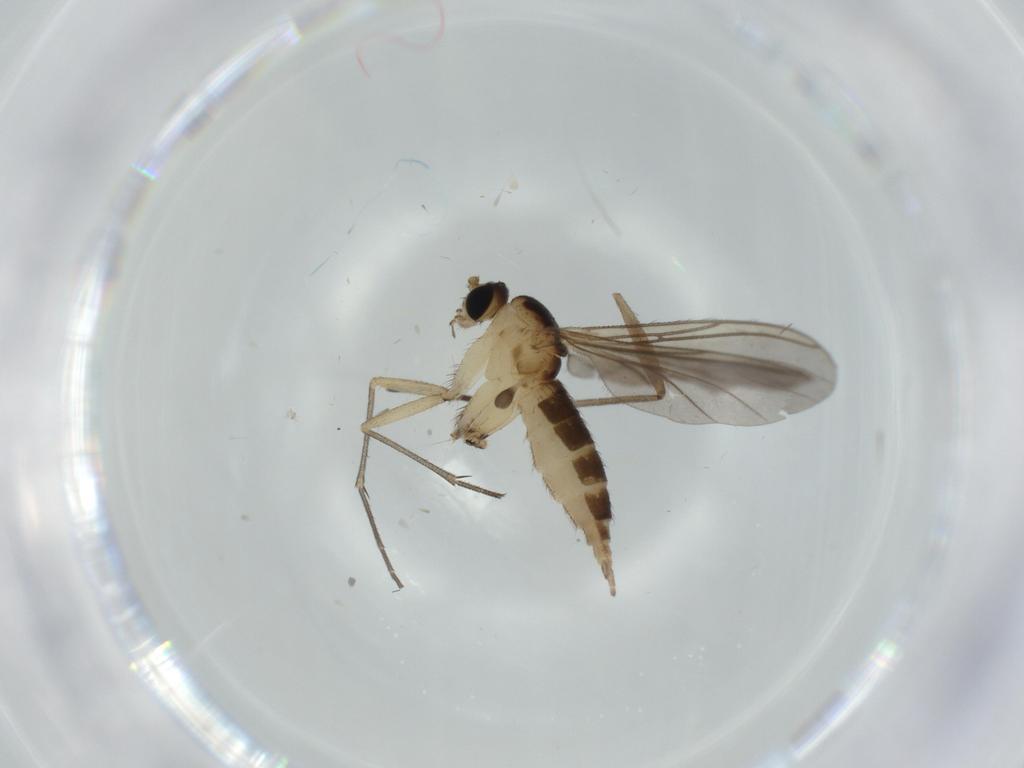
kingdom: Animalia
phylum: Arthropoda
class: Insecta
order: Diptera
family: Sciaridae
